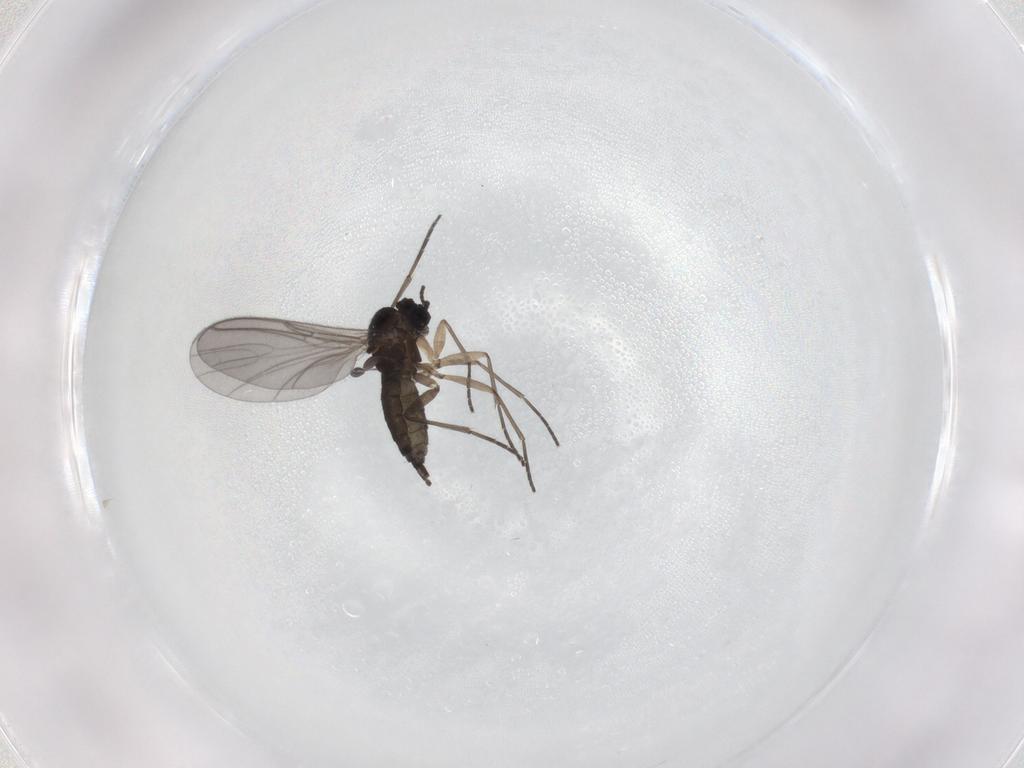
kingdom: Animalia
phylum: Arthropoda
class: Insecta
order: Diptera
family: Sciaridae
